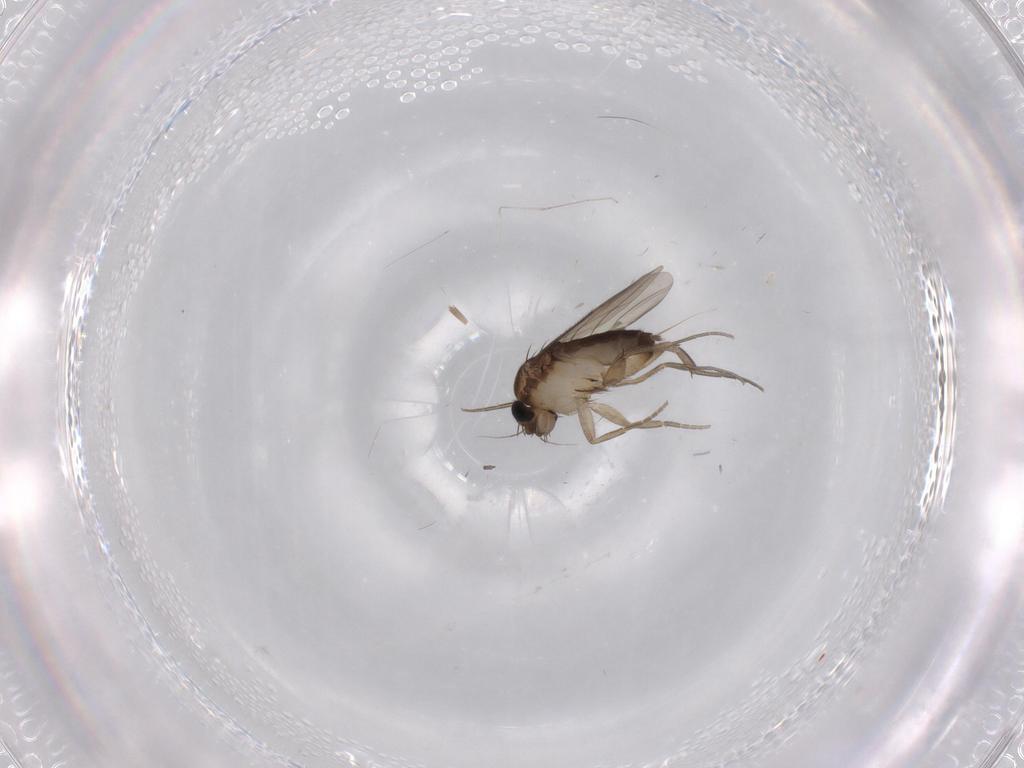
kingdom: Animalia
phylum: Arthropoda
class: Insecta
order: Diptera
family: Phoridae
